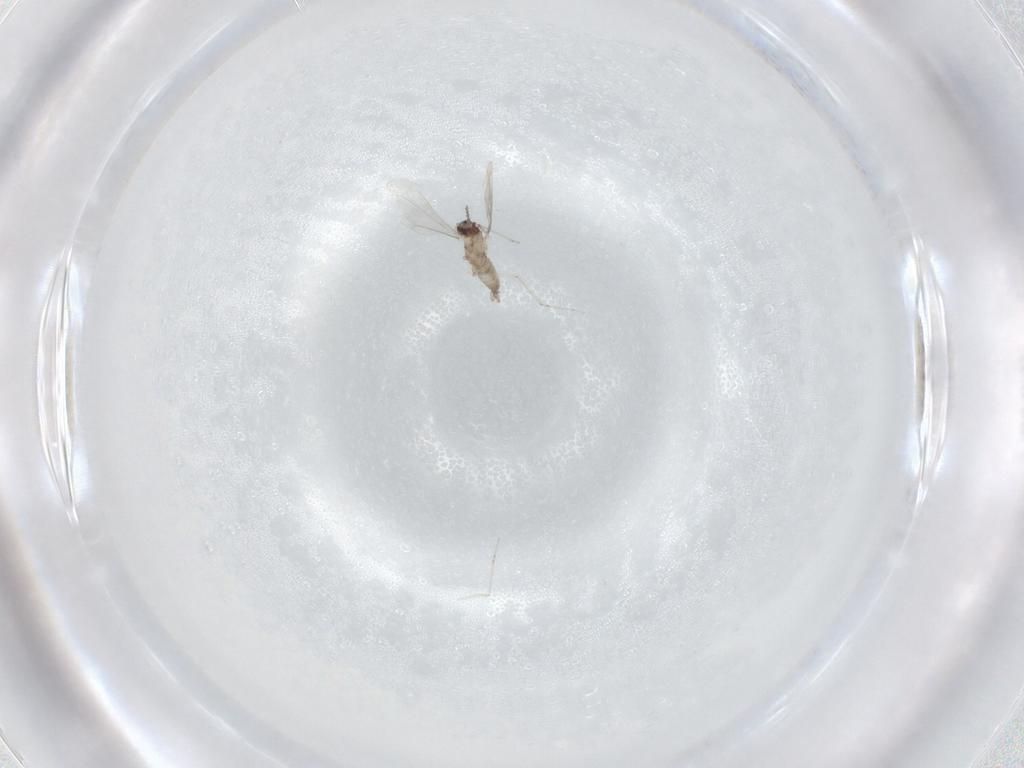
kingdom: Animalia
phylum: Arthropoda
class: Insecta
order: Diptera
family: Cecidomyiidae
